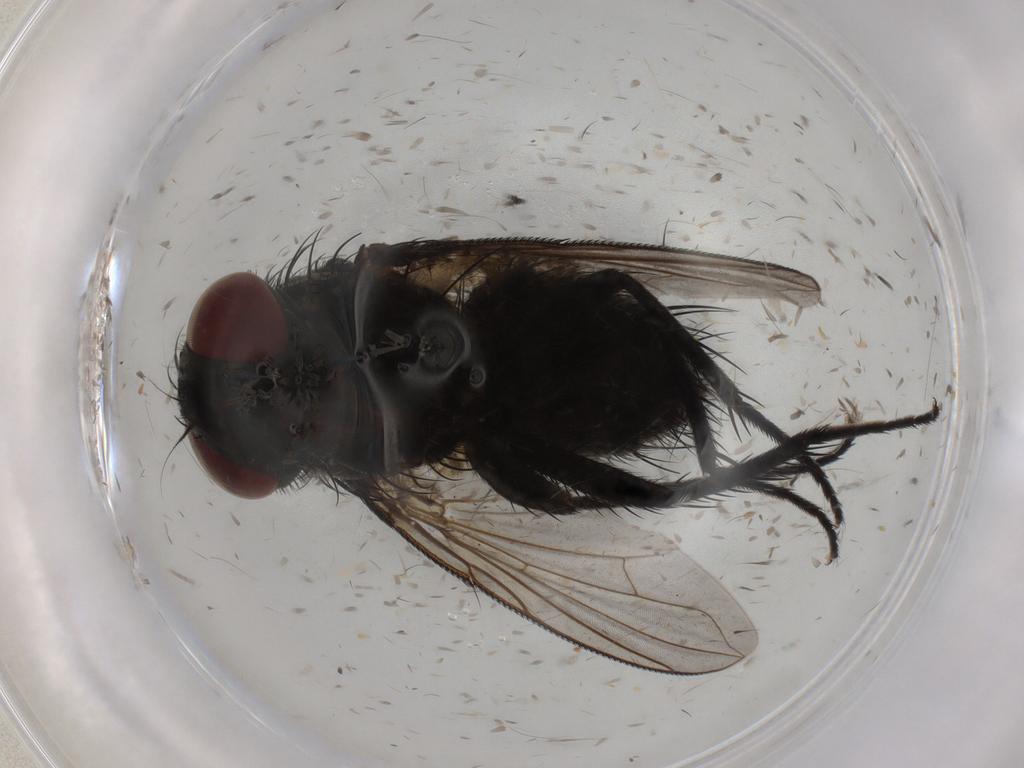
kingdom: Animalia
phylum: Arthropoda
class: Insecta
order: Diptera
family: Tachinidae
